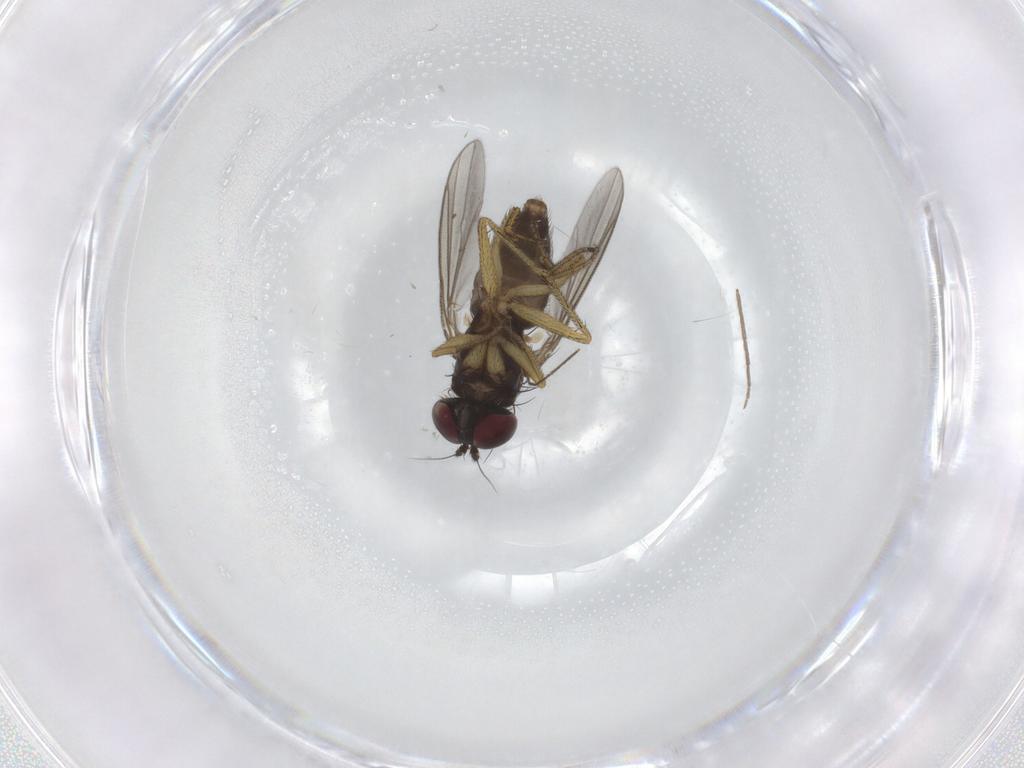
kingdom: Animalia
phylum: Arthropoda
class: Insecta
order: Diptera
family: Chironomidae
